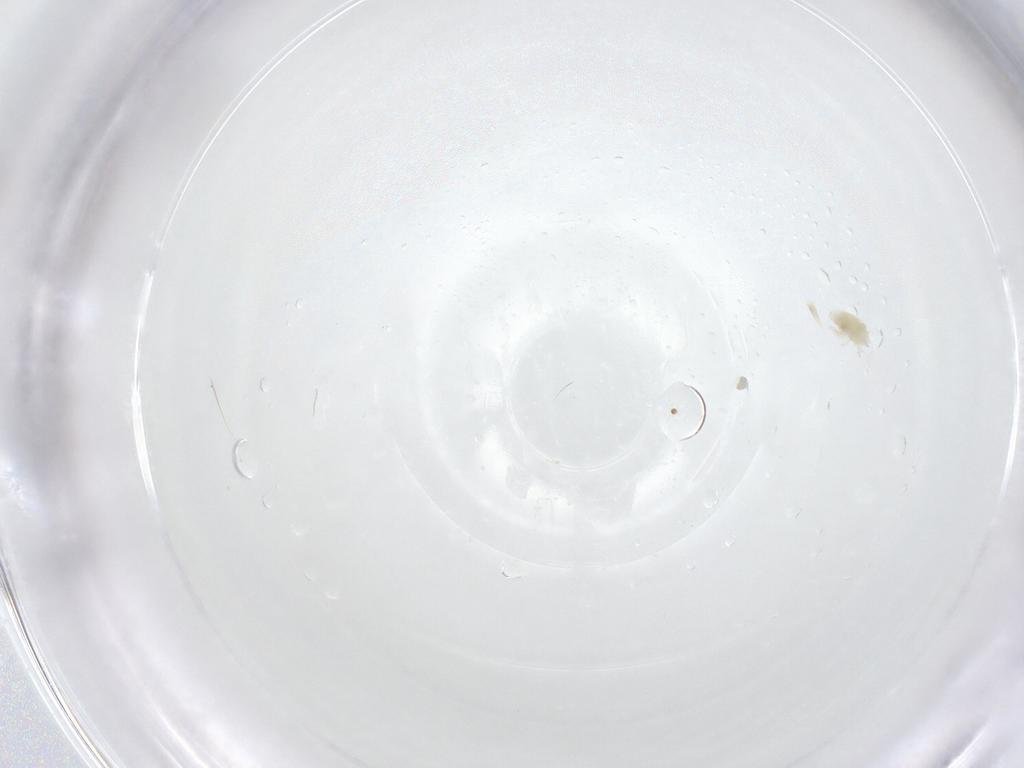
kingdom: Animalia
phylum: Arthropoda
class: Arachnida
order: Trombidiformes
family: Eupodidae
